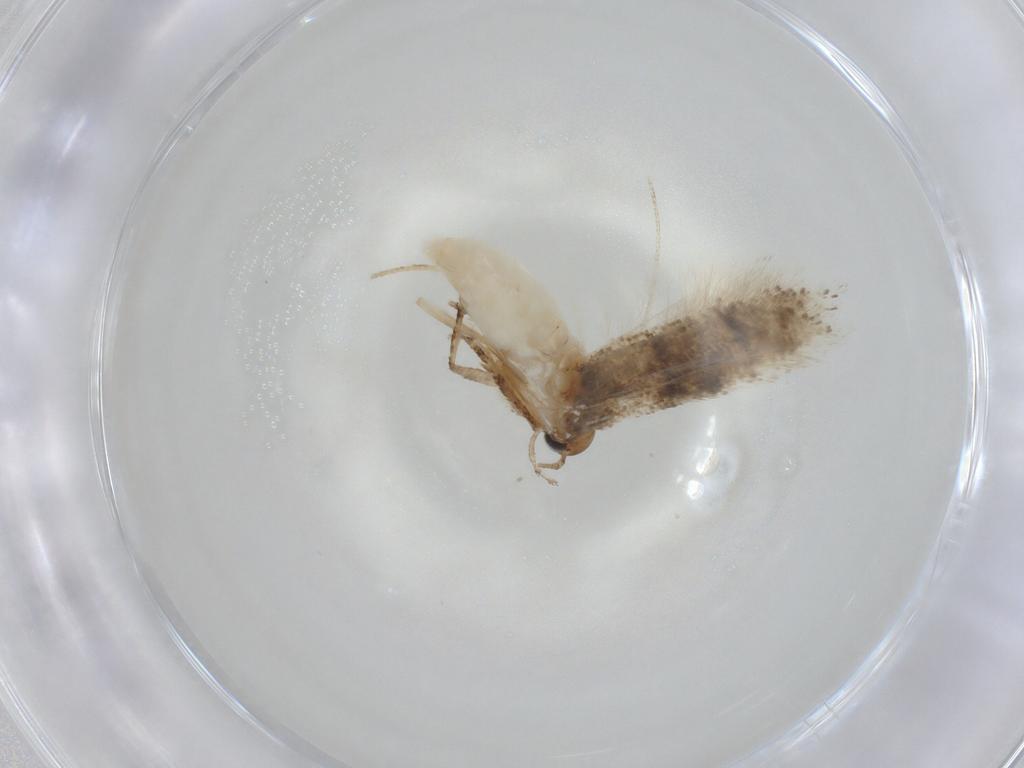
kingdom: Animalia
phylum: Arthropoda
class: Insecta
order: Lepidoptera
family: Gelechiidae
